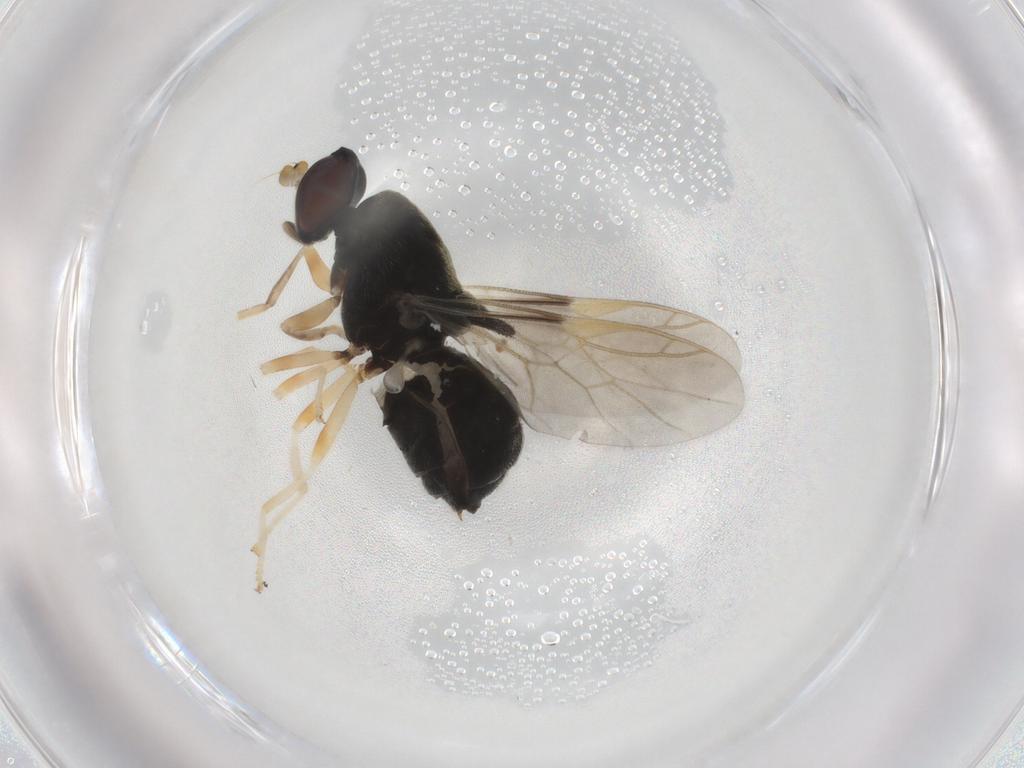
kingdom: Animalia
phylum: Arthropoda
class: Insecta
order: Diptera
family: Stratiomyidae
